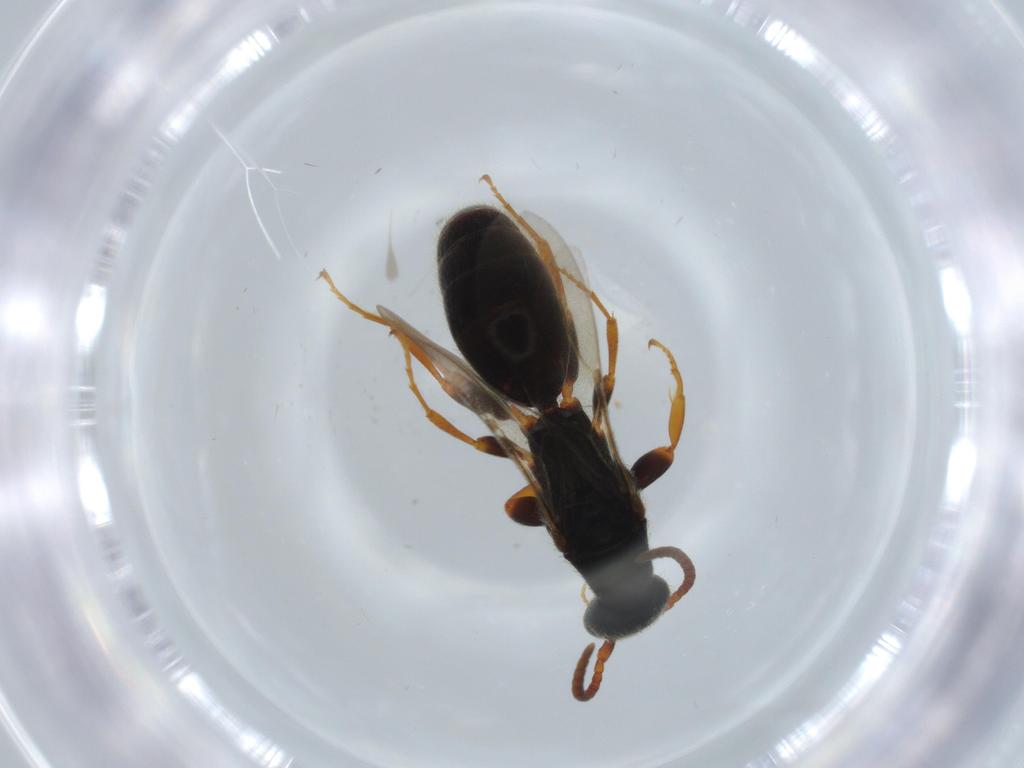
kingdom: Animalia
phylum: Arthropoda
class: Insecta
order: Hymenoptera
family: Bethylidae
